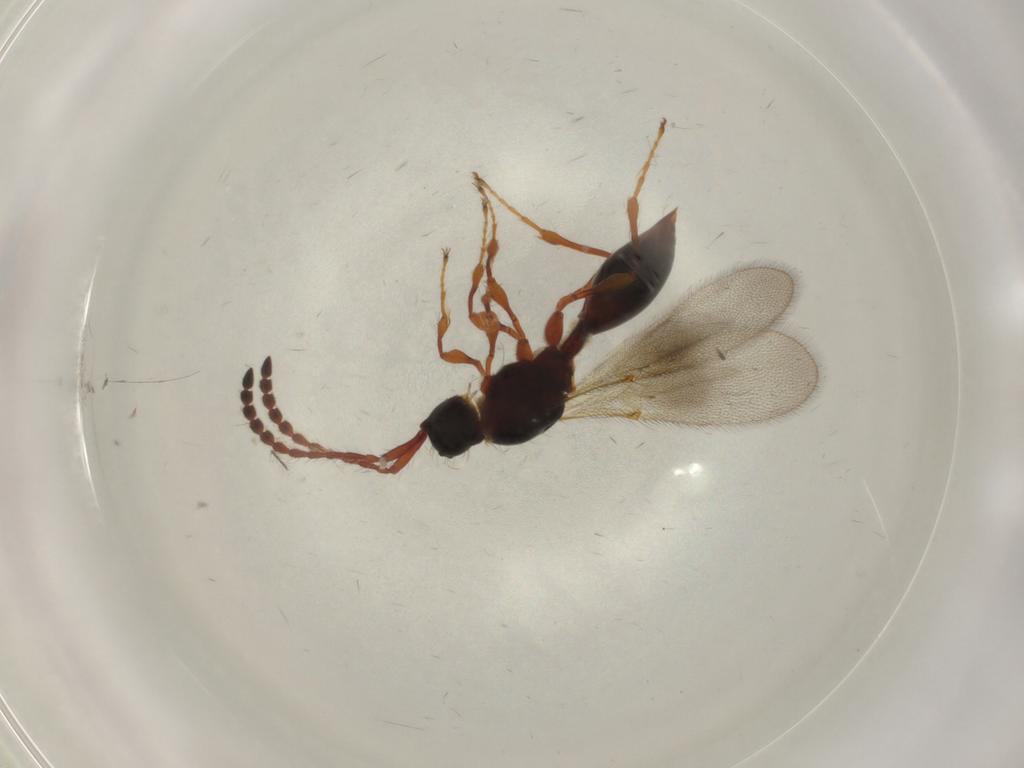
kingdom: Animalia
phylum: Arthropoda
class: Insecta
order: Hymenoptera
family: Diapriidae
